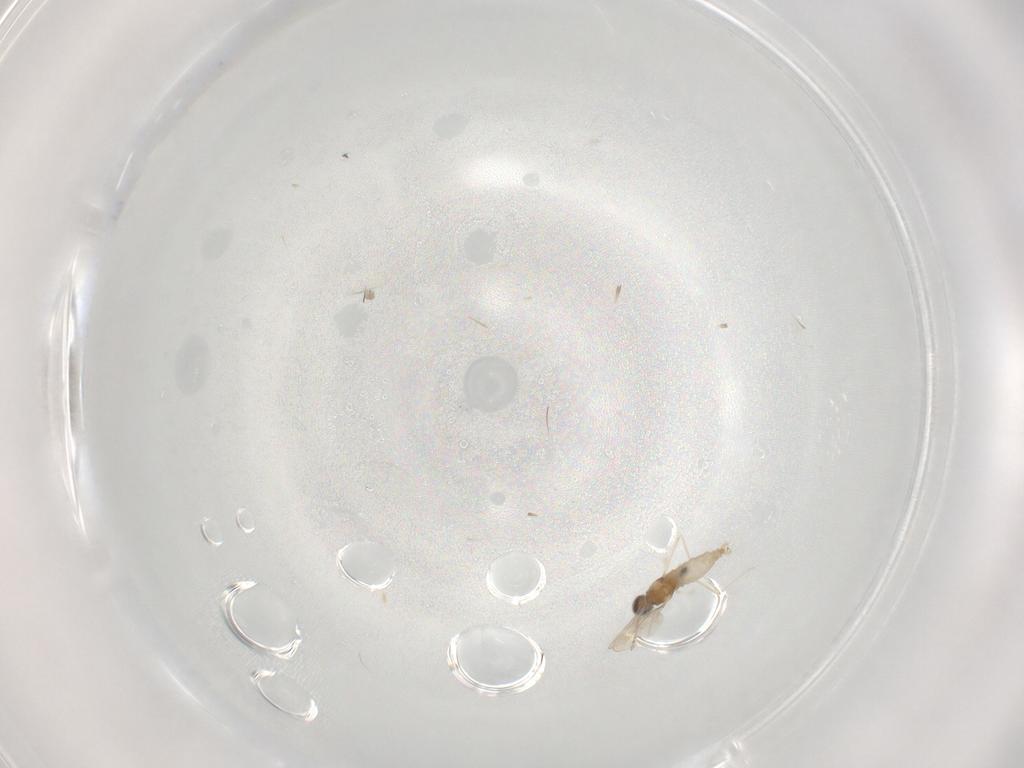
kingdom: Animalia
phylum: Arthropoda
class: Insecta
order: Diptera
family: Cecidomyiidae
